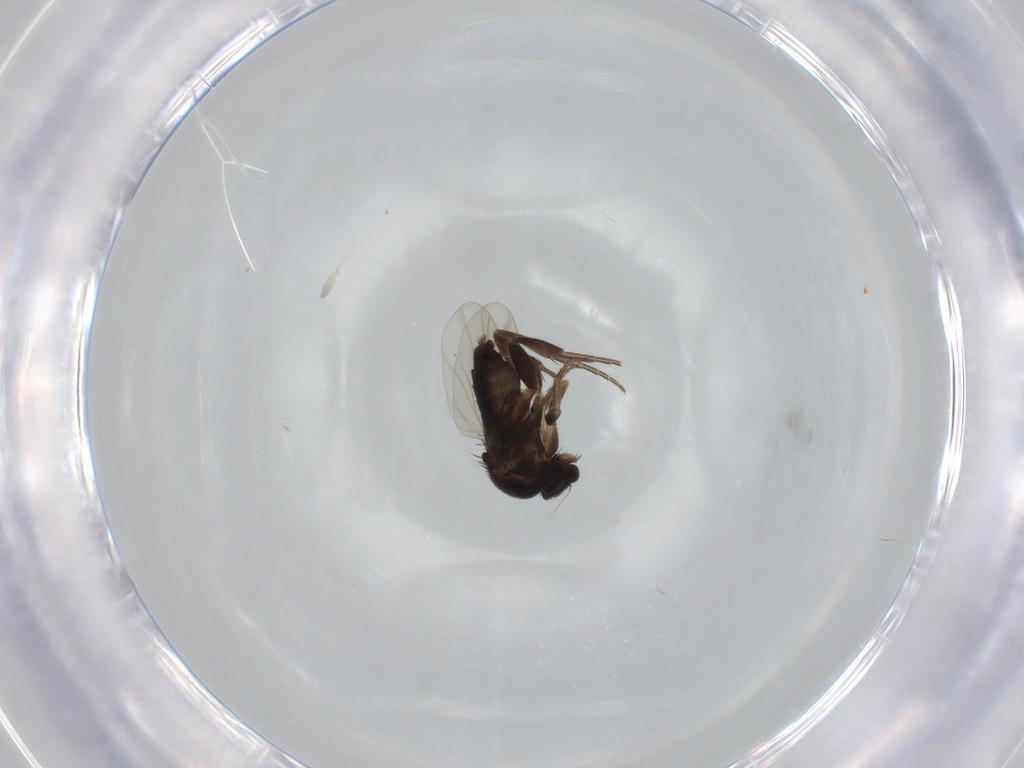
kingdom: Animalia
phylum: Arthropoda
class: Insecta
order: Diptera
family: Phoridae
